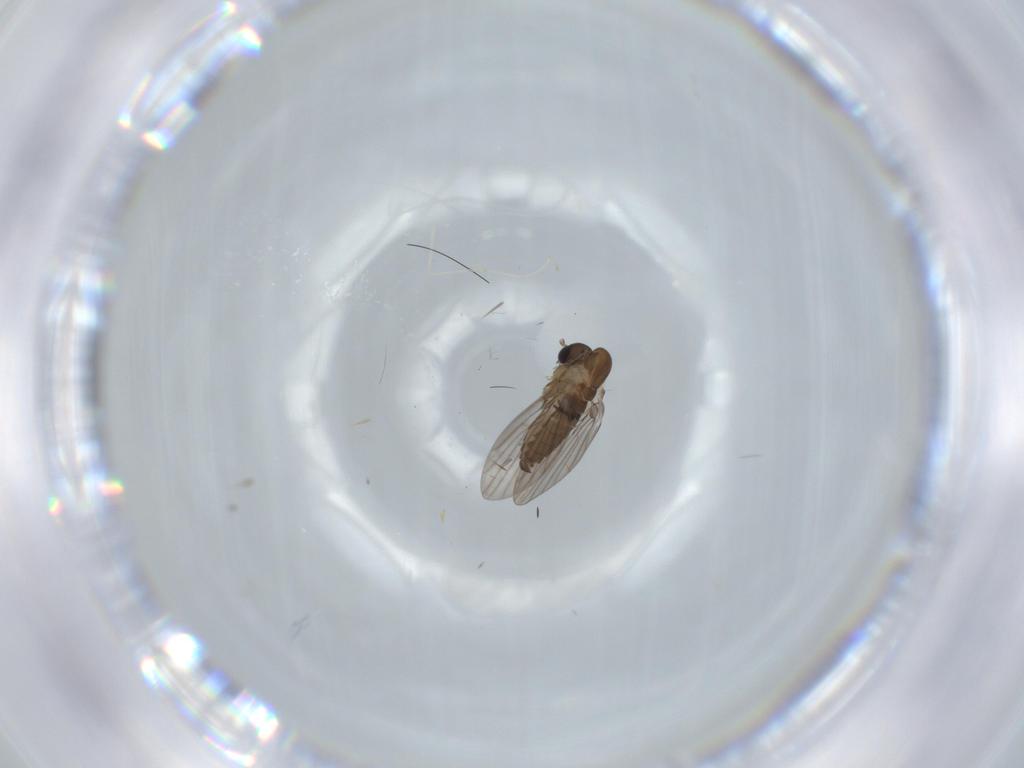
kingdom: Animalia
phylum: Arthropoda
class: Insecta
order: Diptera
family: Psychodidae
